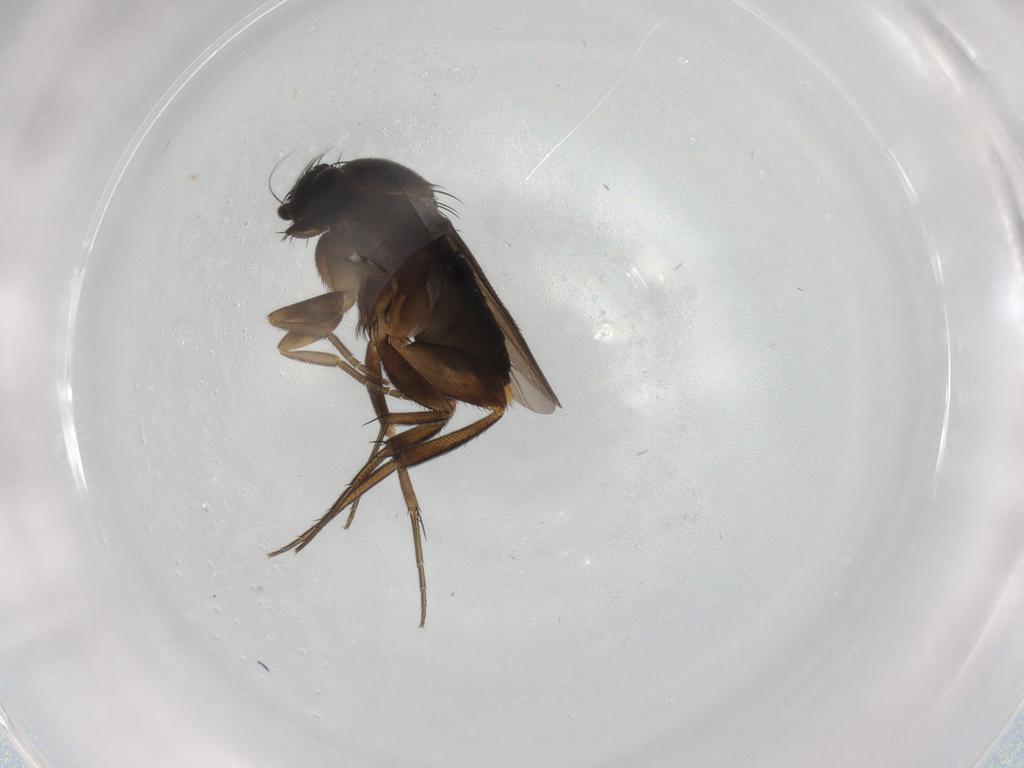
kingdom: Animalia
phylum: Arthropoda
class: Insecta
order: Diptera
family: Phoridae
